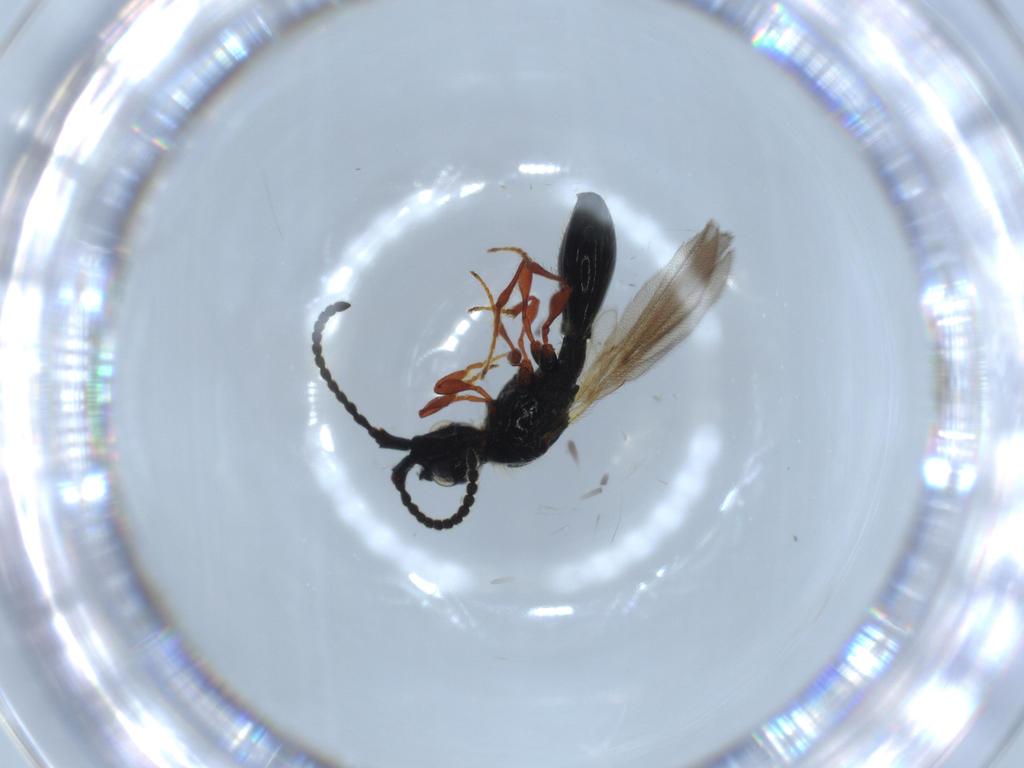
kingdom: Animalia
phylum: Arthropoda
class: Insecta
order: Hymenoptera
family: Diapriidae
